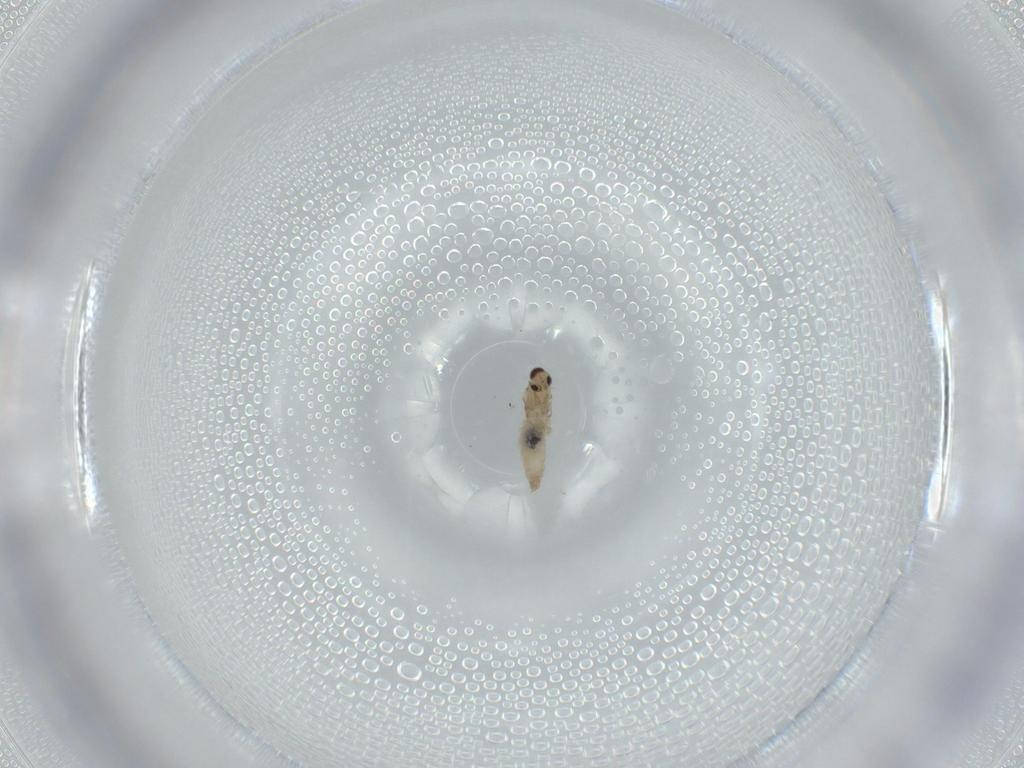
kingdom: Animalia
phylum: Arthropoda
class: Insecta
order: Diptera
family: Cecidomyiidae
